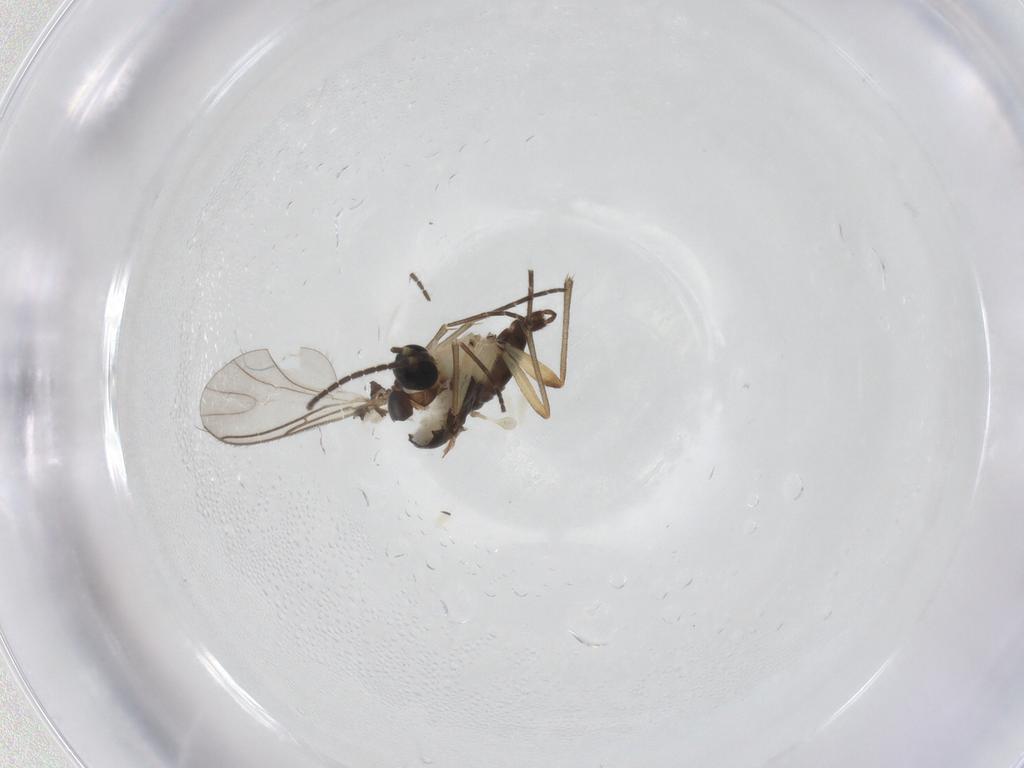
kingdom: Animalia
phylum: Arthropoda
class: Insecta
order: Diptera
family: Sciaridae
